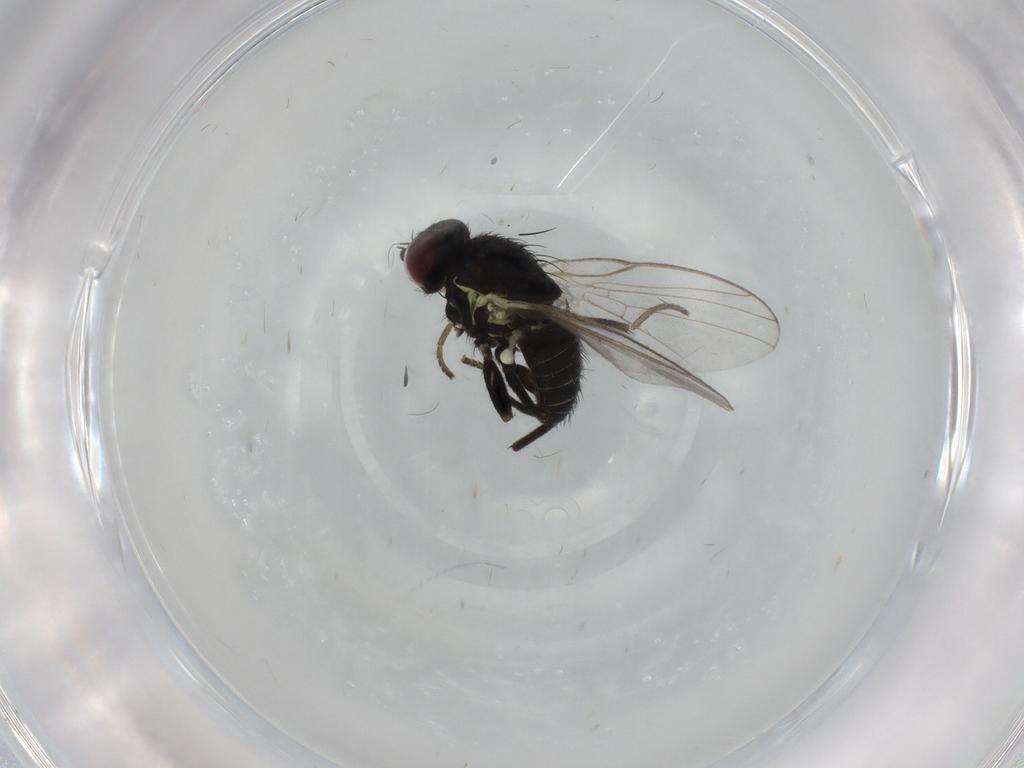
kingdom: Animalia
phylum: Arthropoda
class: Insecta
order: Diptera
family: Agromyzidae
